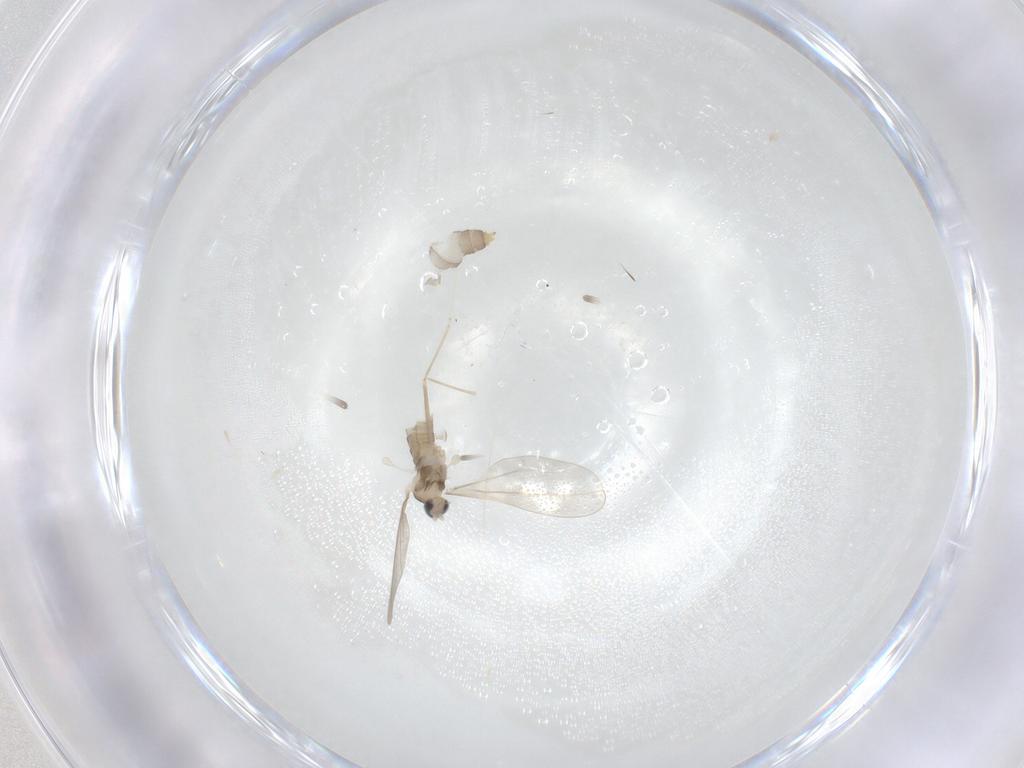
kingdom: Animalia
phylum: Arthropoda
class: Insecta
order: Diptera
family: Cecidomyiidae
